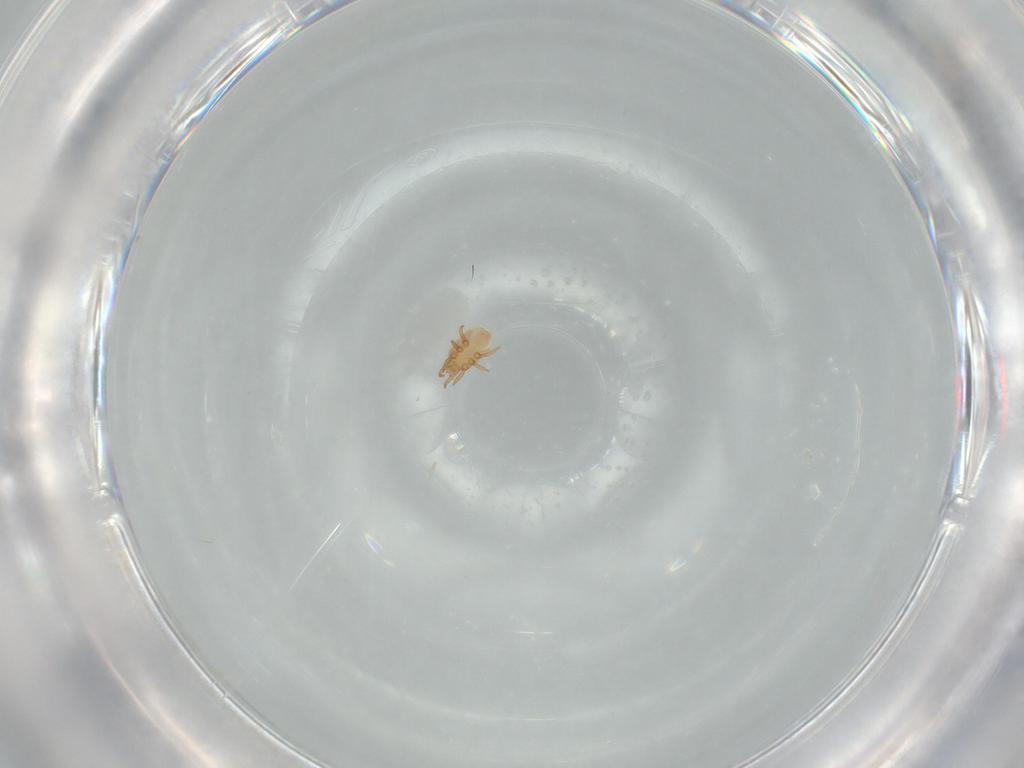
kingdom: Animalia
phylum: Arthropoda
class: Arachnida
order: Mesostigmata
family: Dinychidae
